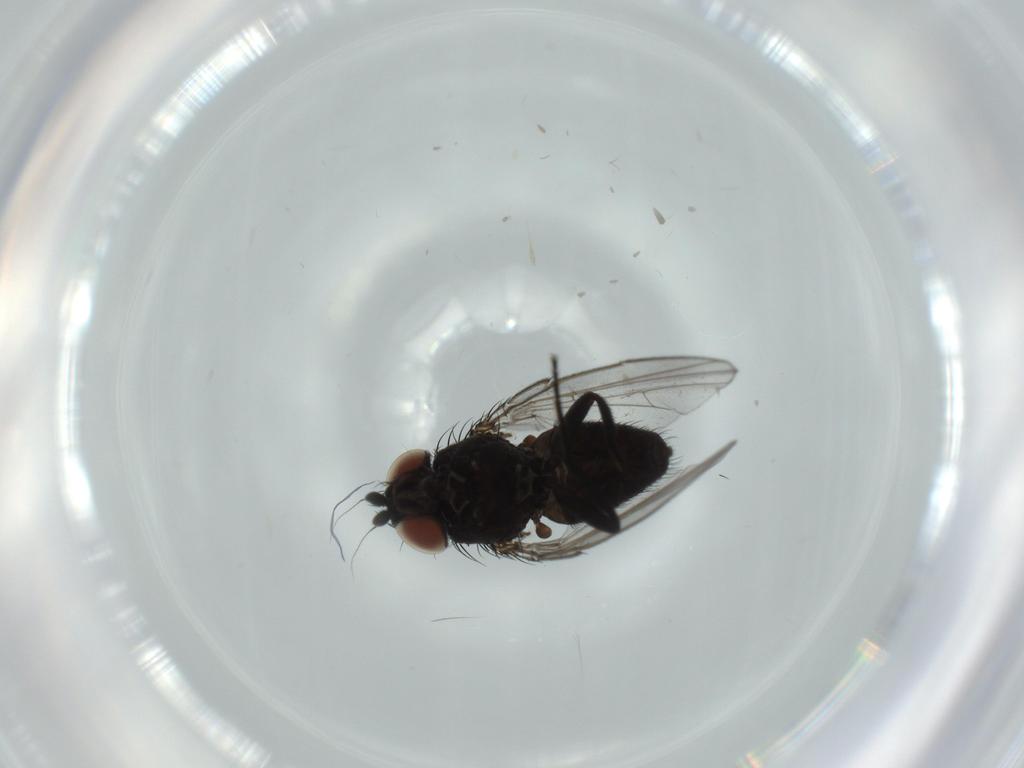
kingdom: Animalia
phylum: Arthropoda
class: Insecta
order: Diptera
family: Milichiidae
